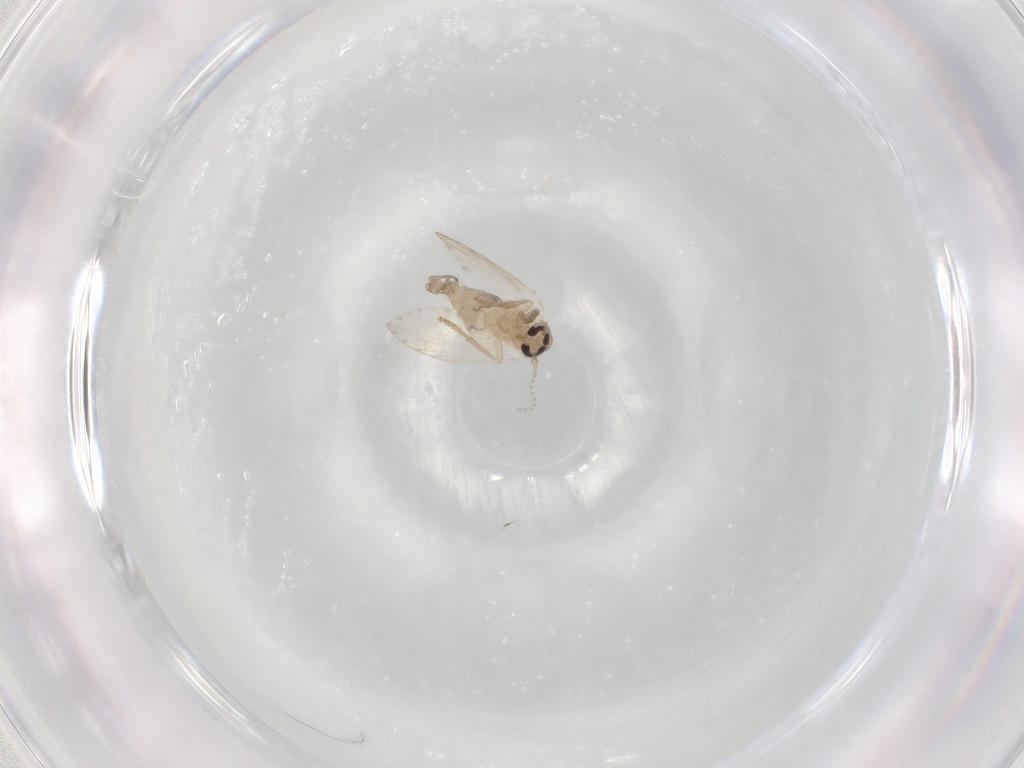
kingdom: Animalia
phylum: Arthropoda
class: Insecta
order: Diptera
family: Psychodidae
